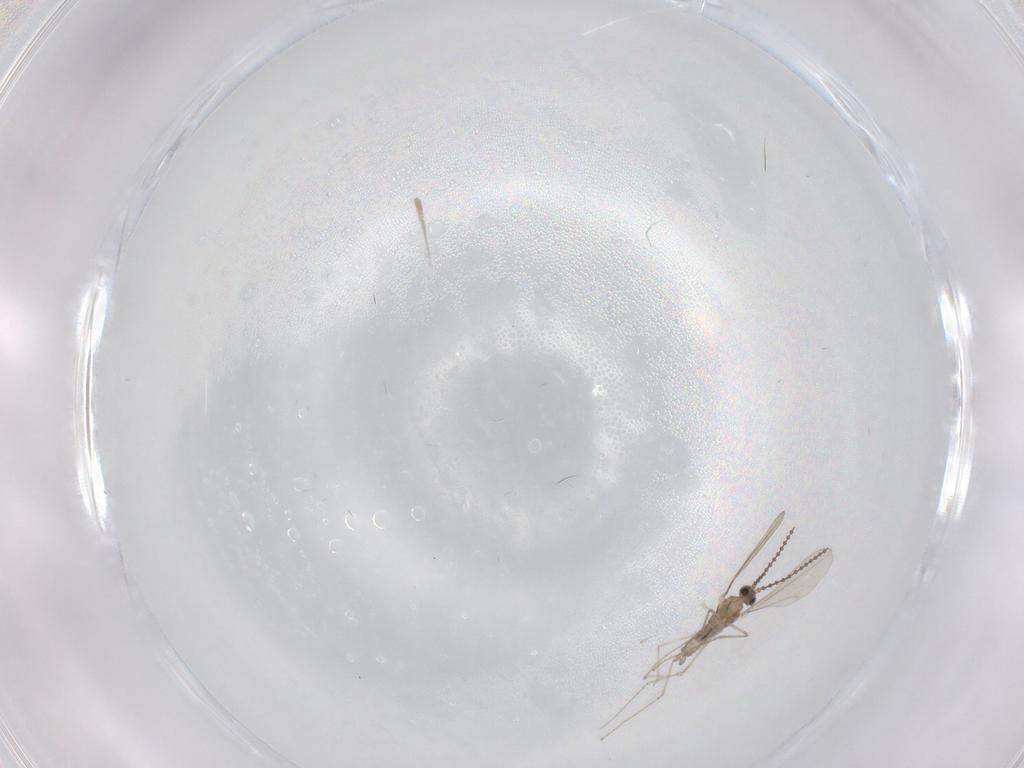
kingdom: Animalia
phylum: Arthropoda
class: Insecta
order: Diptera
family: Cecidomyiidae
